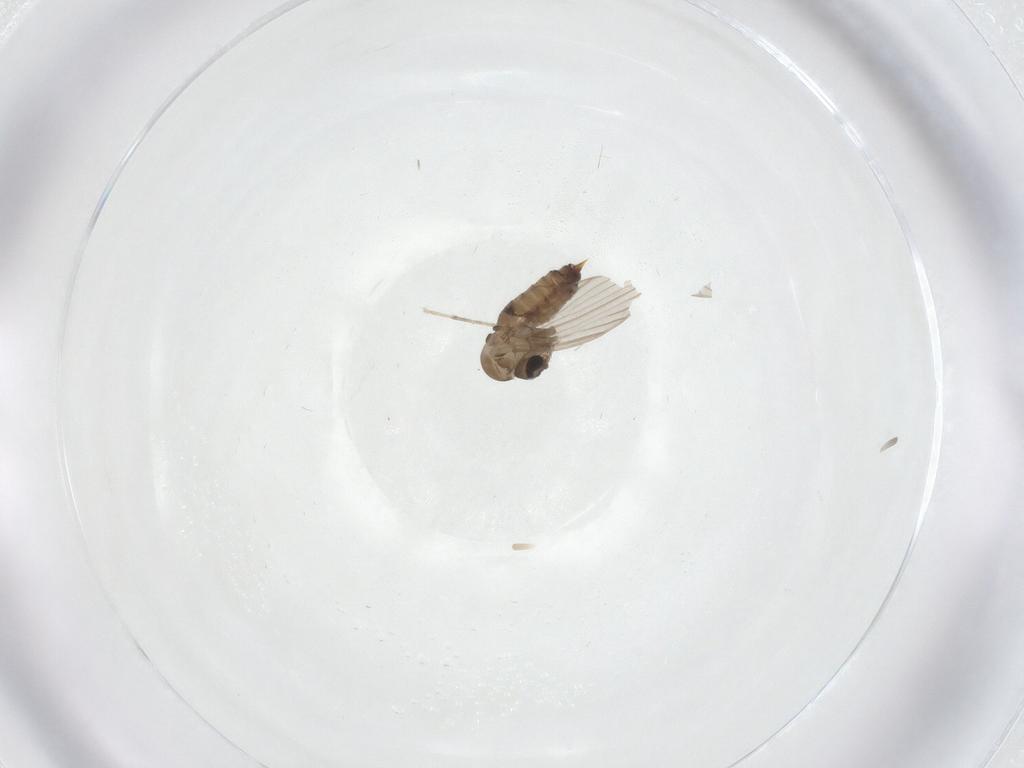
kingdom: Animalia
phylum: Arthropoda
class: Insecta
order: Diptera
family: Psychodidae
